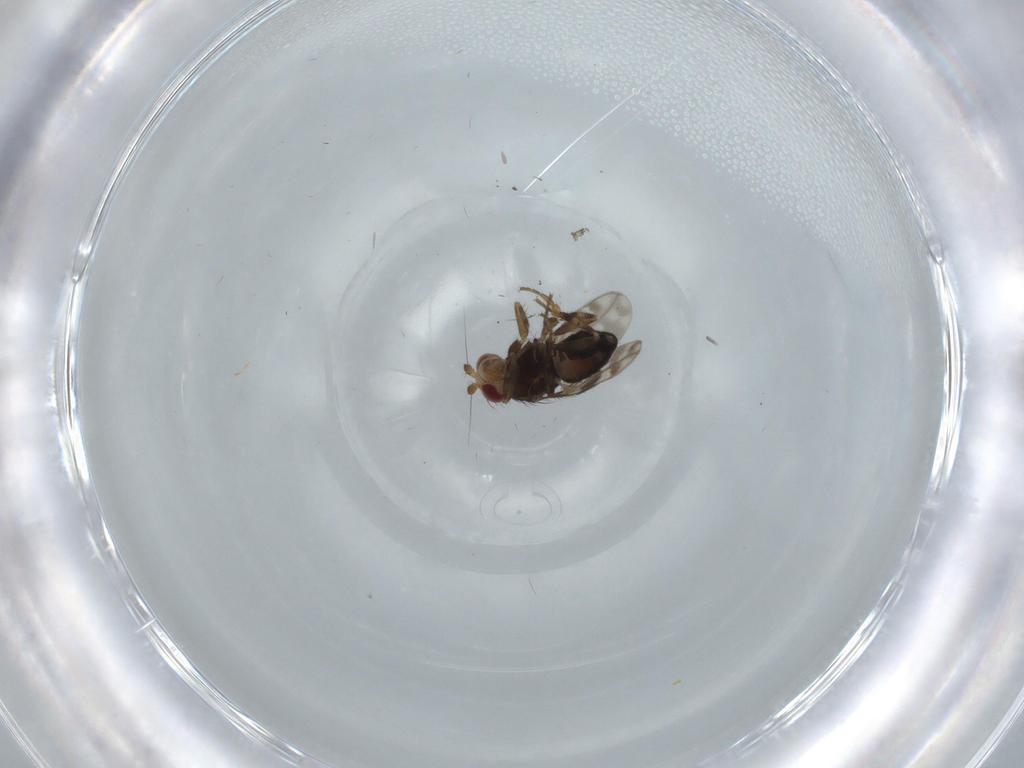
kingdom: Animalia
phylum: Arthropoda
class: Insecta
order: Diptera
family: Sphaeroceridae
